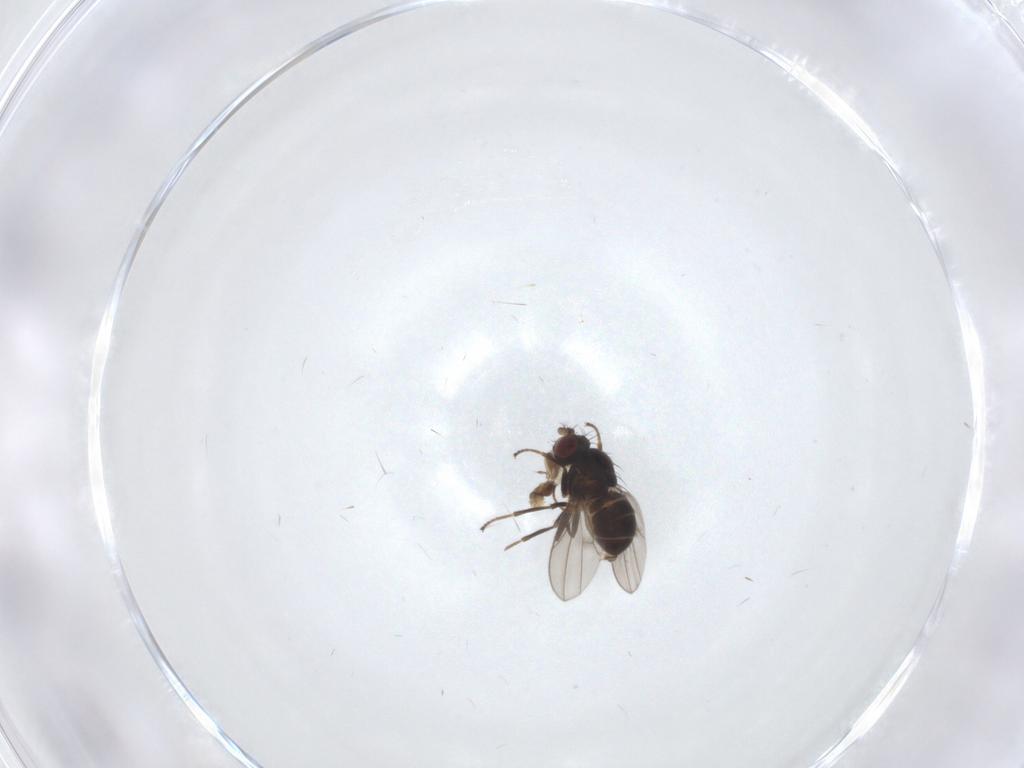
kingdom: Animalia
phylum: Arthropoda
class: Insecta
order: Diptera
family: Ephydridae
